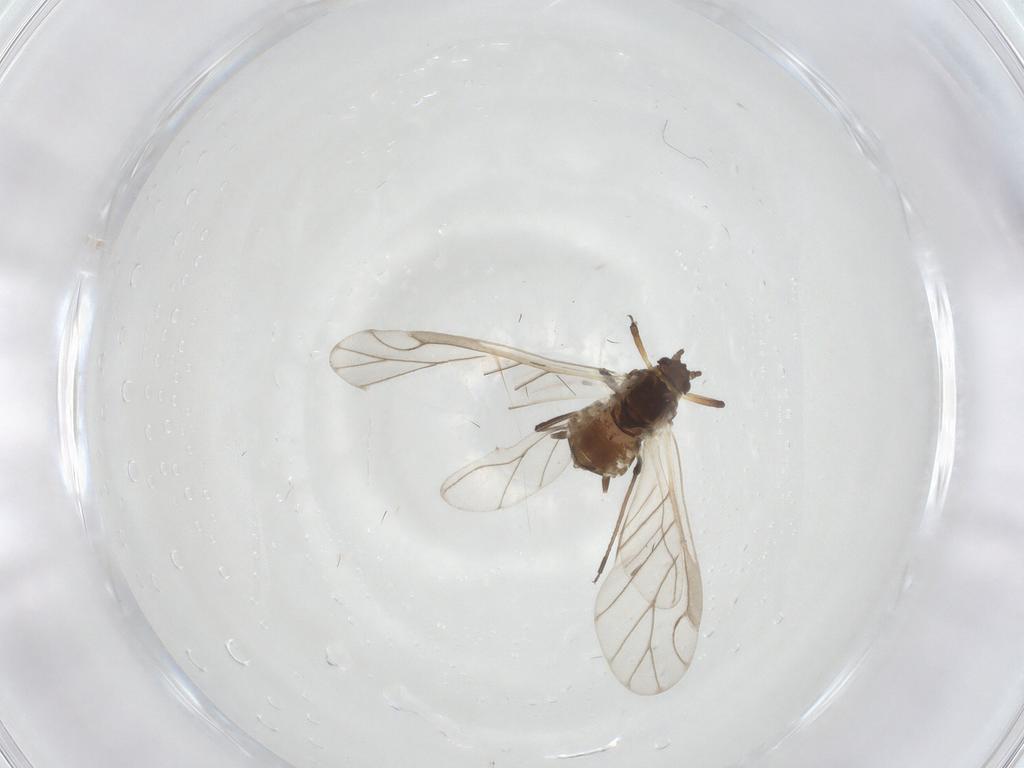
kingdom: Animalia
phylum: Arthropoda
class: Insecta
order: Hemiptera
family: Aphididae
